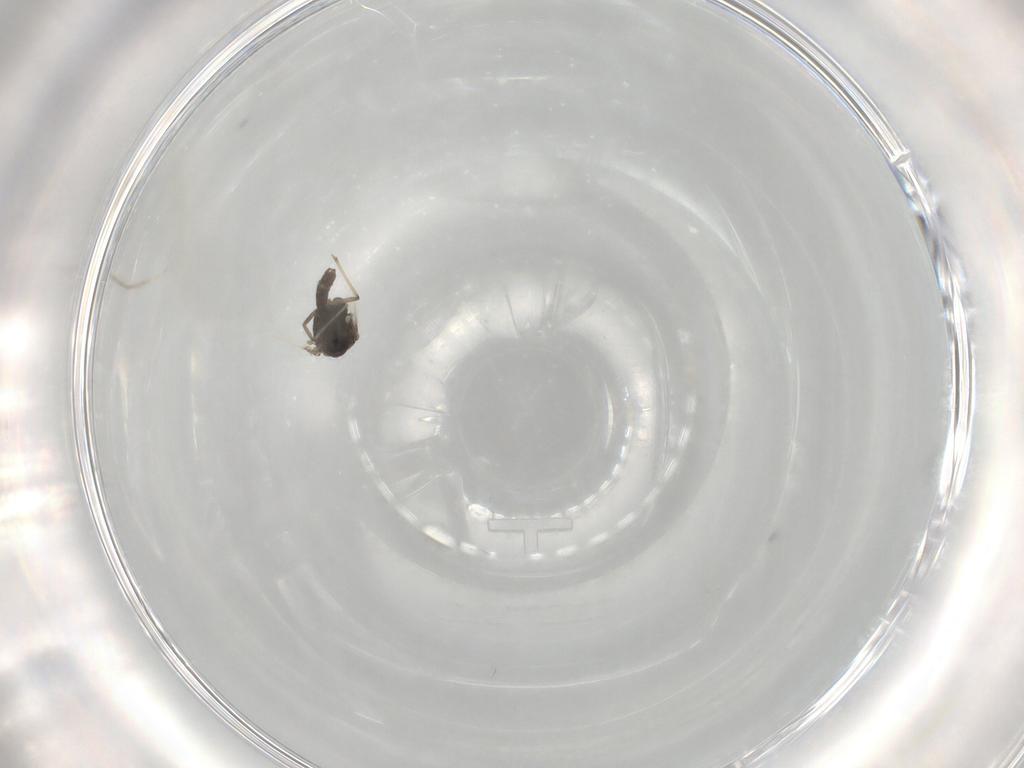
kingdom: Animalia
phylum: Arthropoda
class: Insecta
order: Diptera
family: Chironomidae
